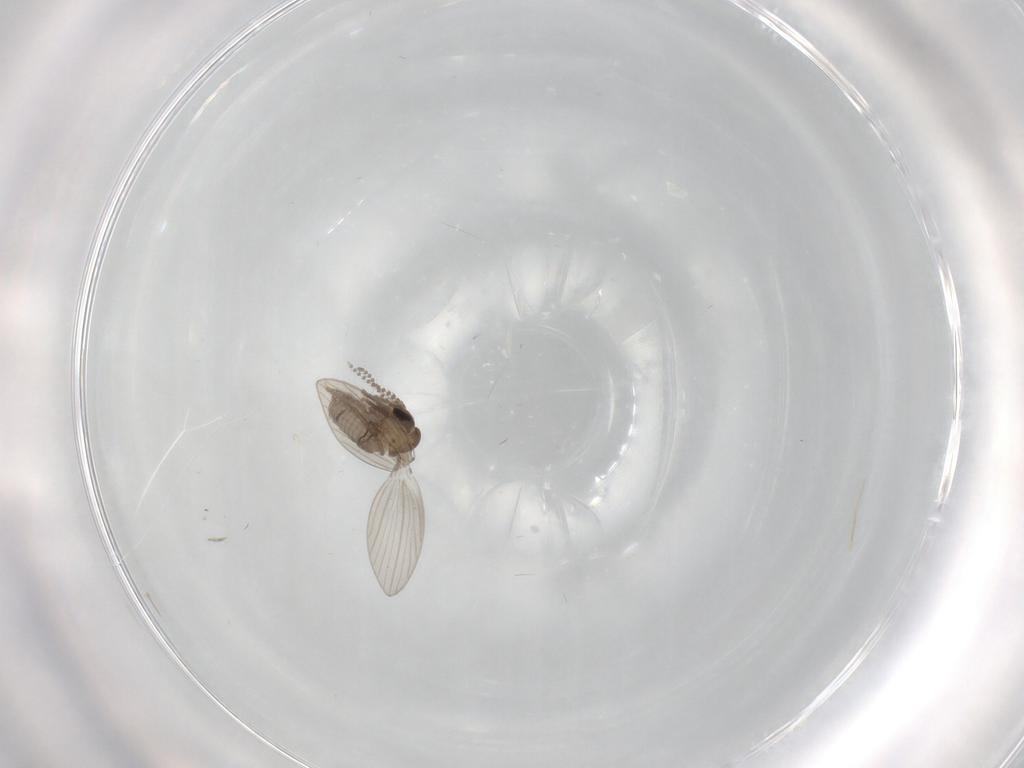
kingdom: Animalia
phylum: Arthropoda
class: Insecta
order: Diptera
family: Psychodidae
